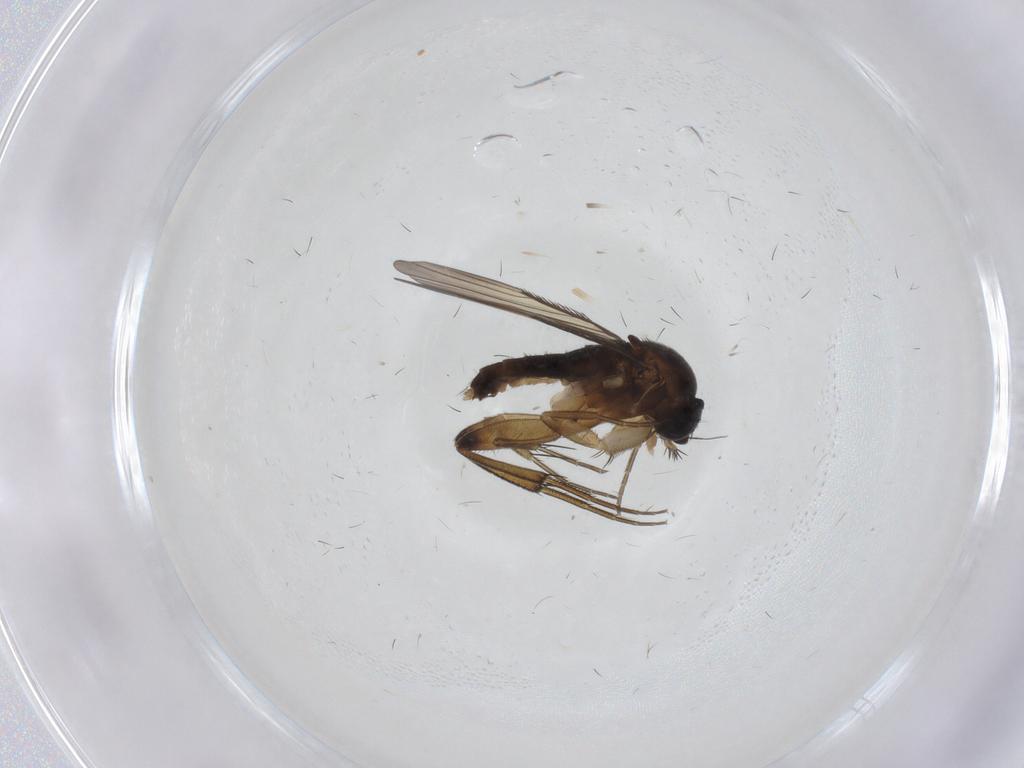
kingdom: Animalia
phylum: Arthropoda
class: Insecta
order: Diptera
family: Phoridae
